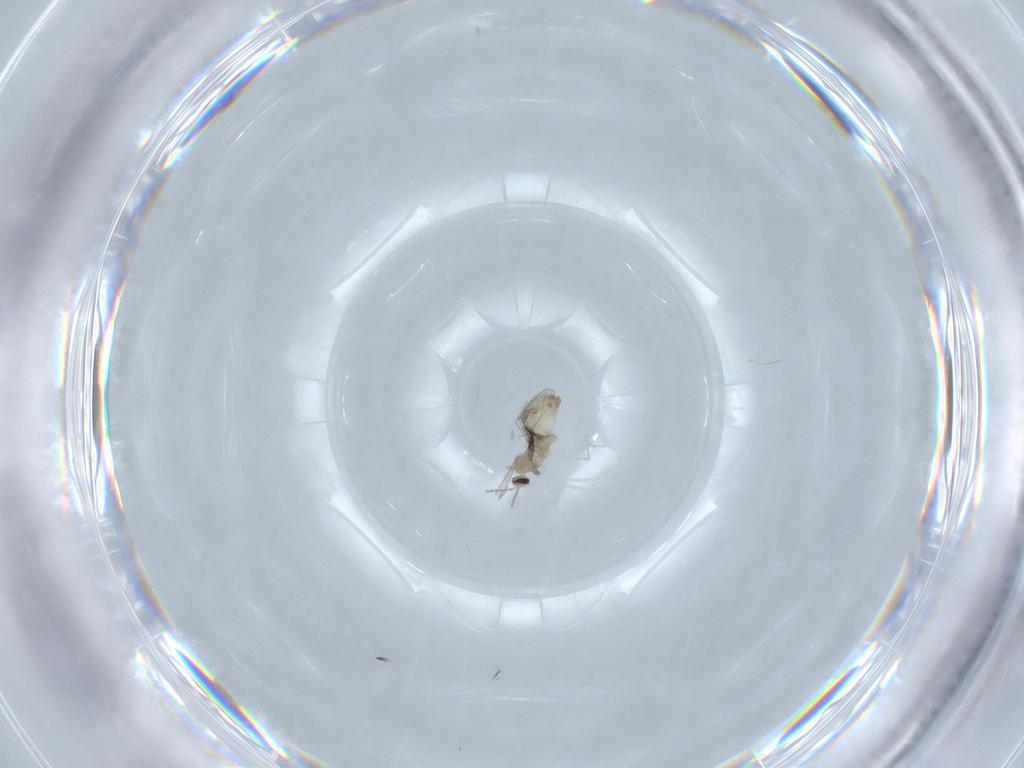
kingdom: Animalia
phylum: Arthropoda
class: Insecta
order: Diptera
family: Cecidomyiidae
